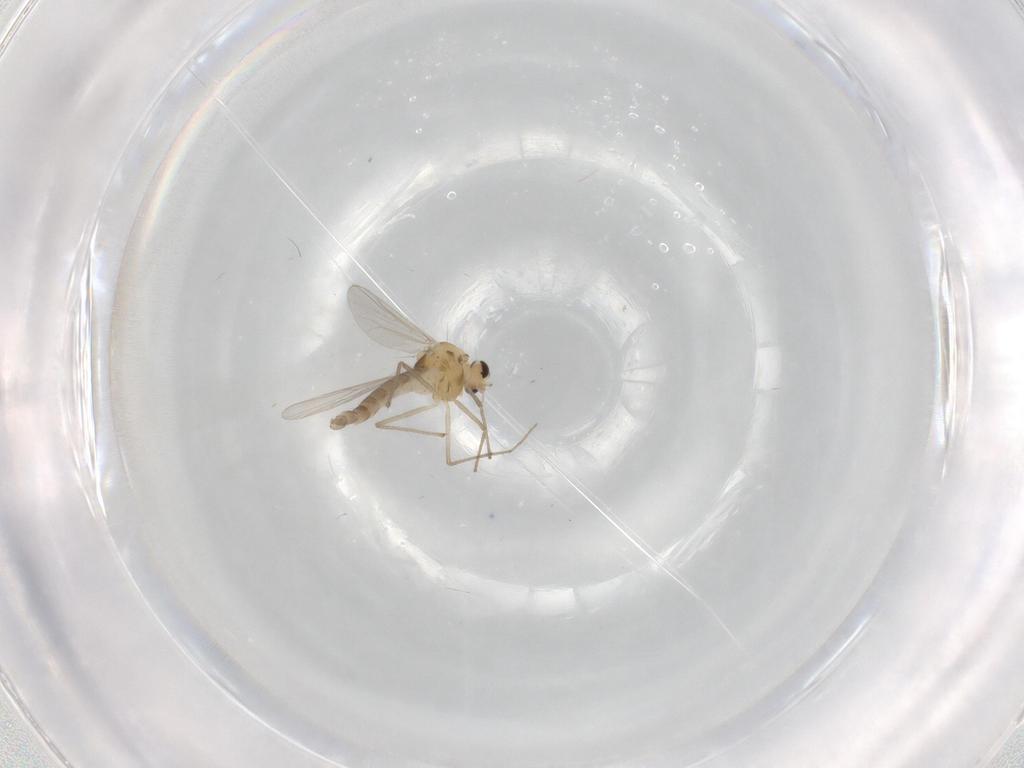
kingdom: Animalia
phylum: Arthropoda
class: Insecta
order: Diptera
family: Chironomidae
